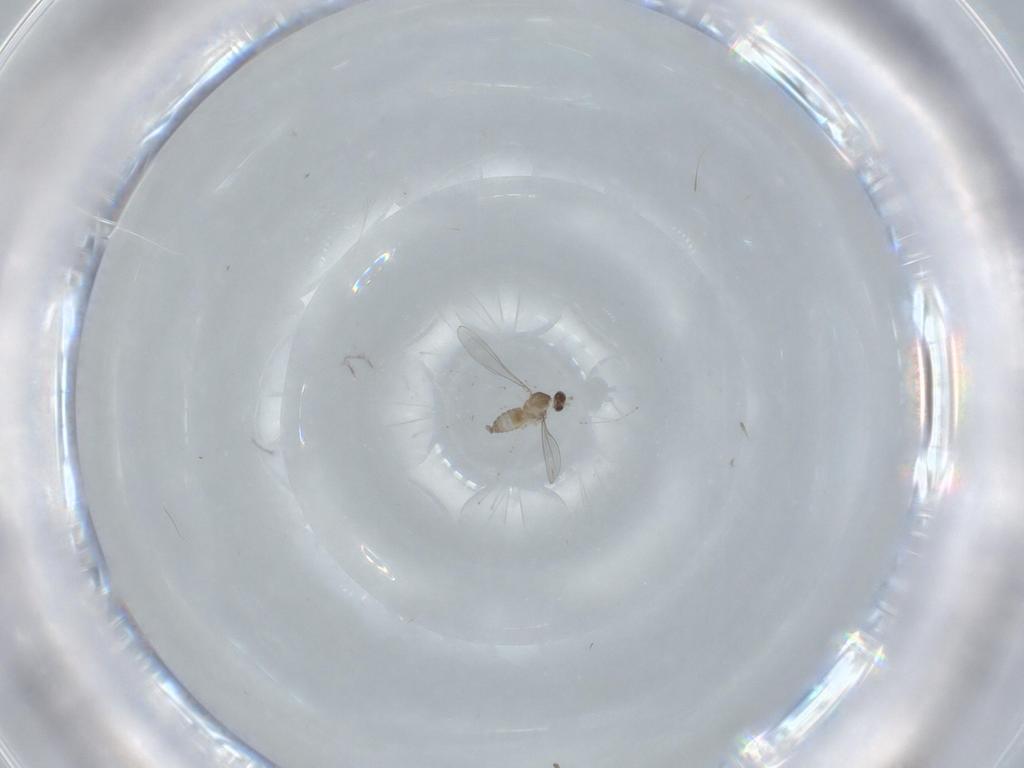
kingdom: Animalia
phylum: Arthropoda
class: Insecta
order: Diptera
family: Cecidomyiidae
